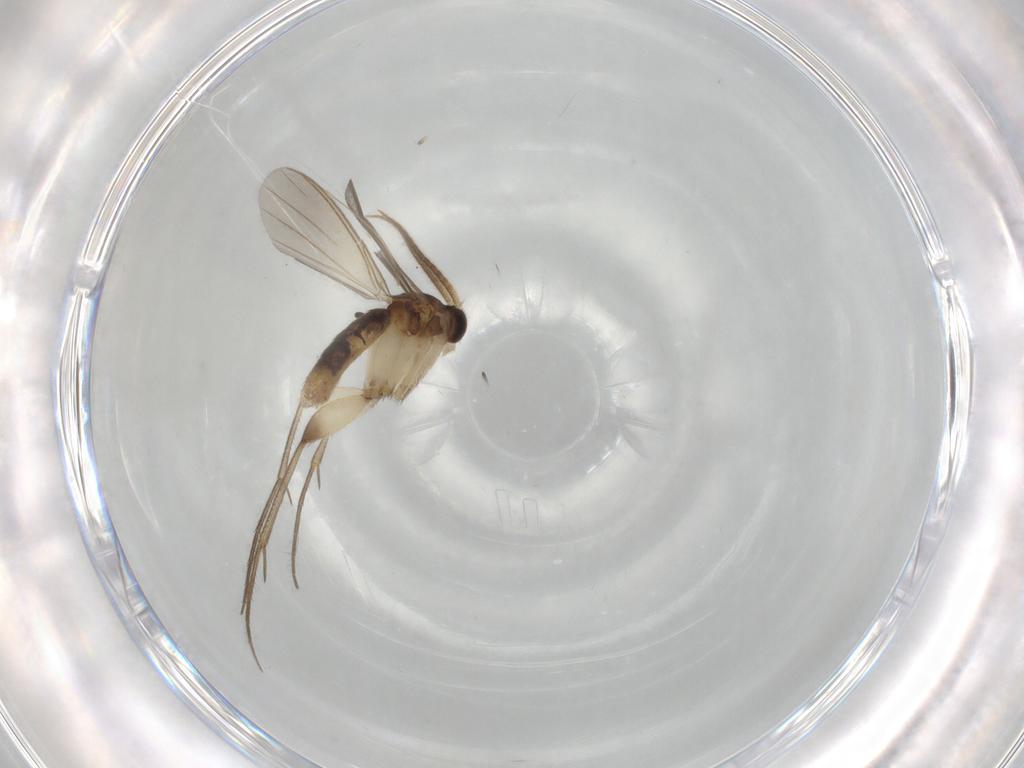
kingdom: Animalia
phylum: Arthropoda
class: Insecta
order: Diptera
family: Mycetophilidae
